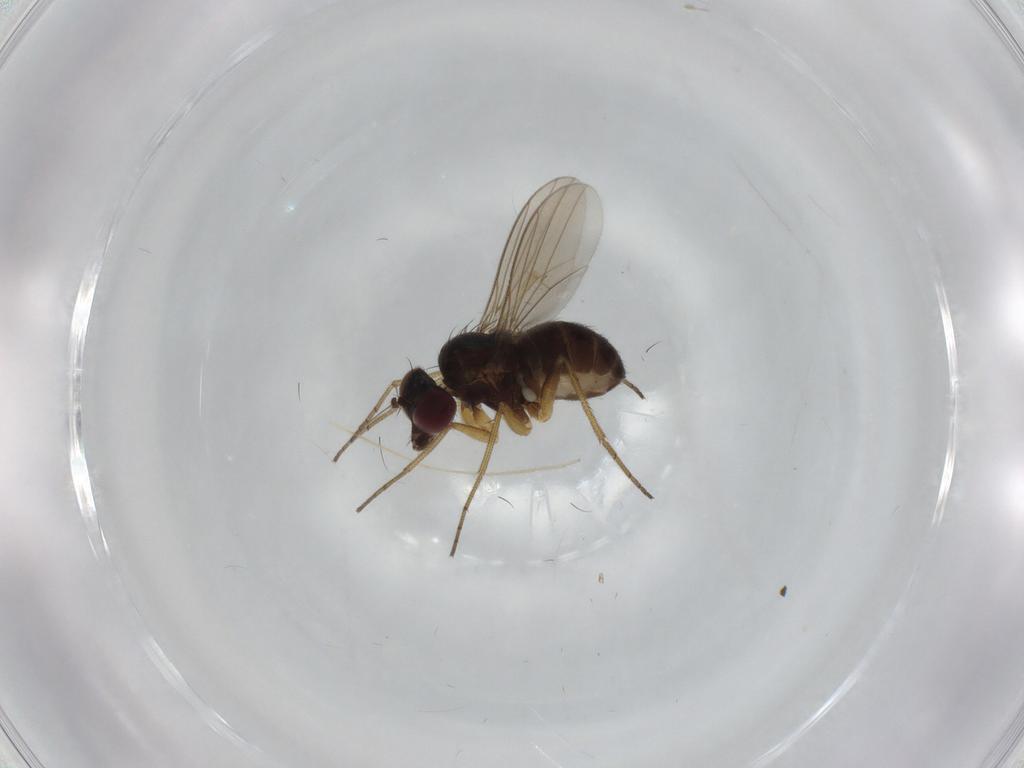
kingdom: Animalia
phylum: Arthropoda
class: Insecta
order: Diptera
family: Dolichopodidae
